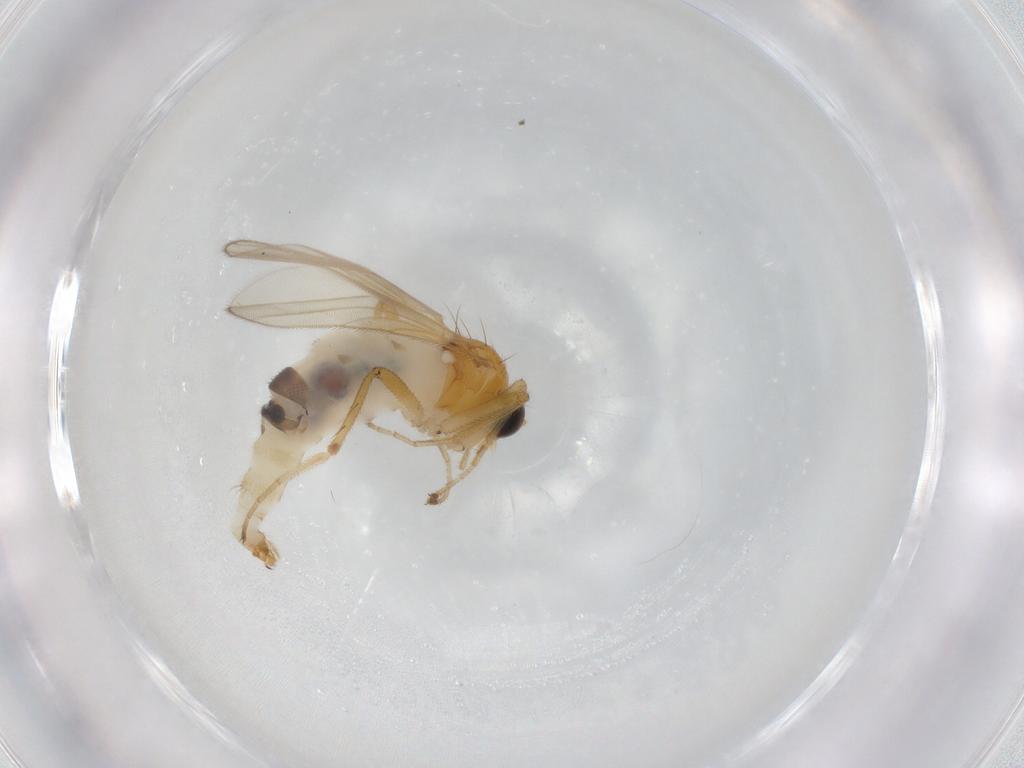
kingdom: Animalia
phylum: Arthropoda
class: Insecta
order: Diptera
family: Hybotidae
